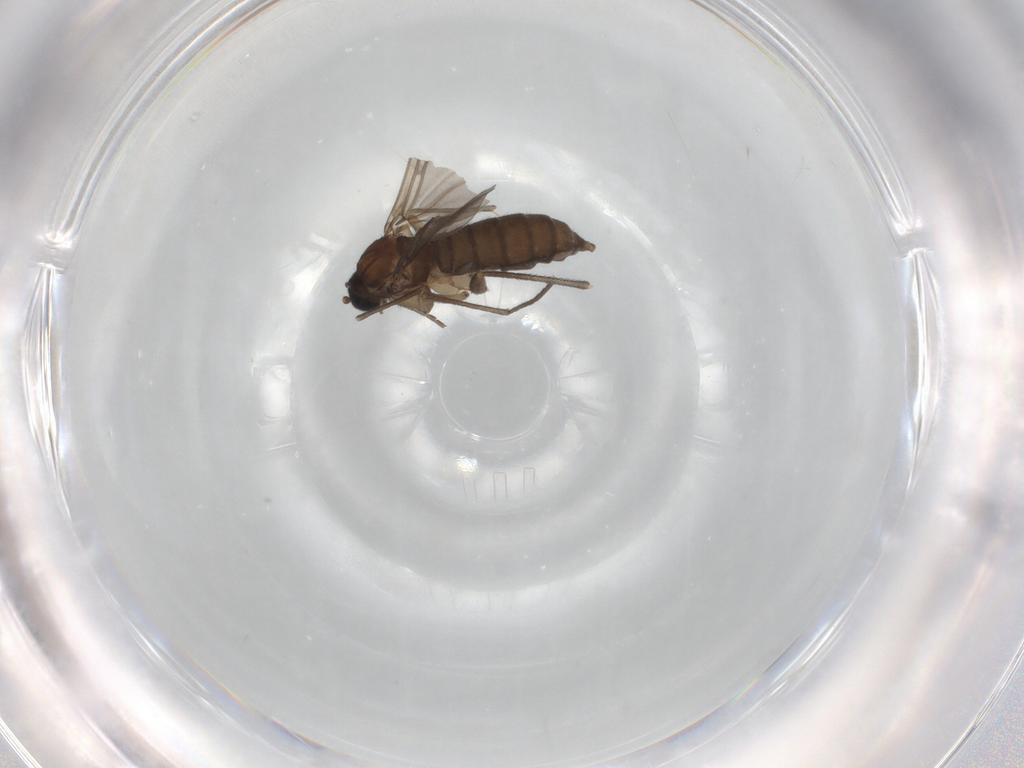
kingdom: Animalia
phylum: Arthropoda
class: Insecta
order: Diptera
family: Sciaridae
